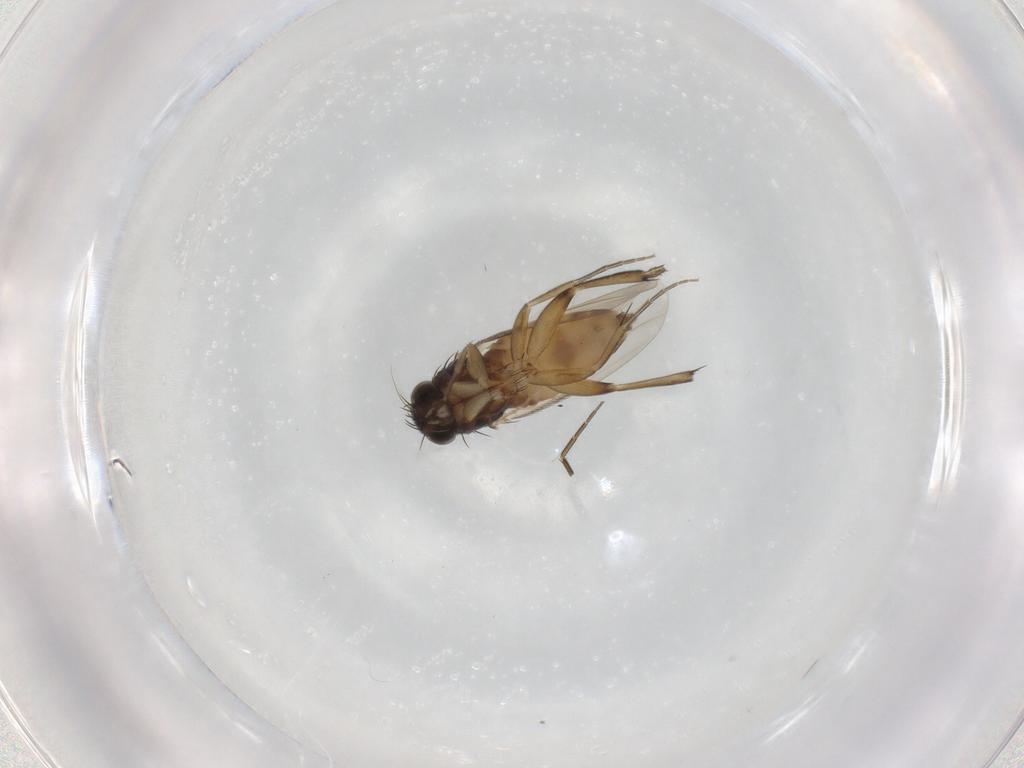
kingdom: Animalia
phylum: Arthropoda
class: Insecta
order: Diptera
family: Phoridae
